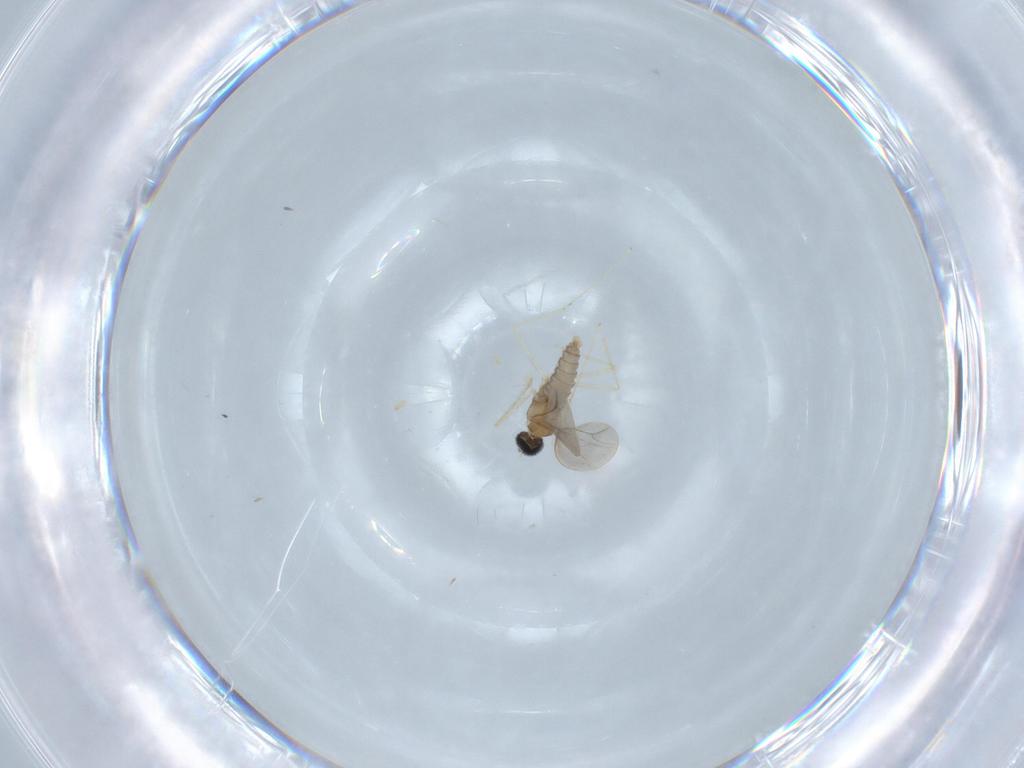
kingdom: Animalia
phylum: Arthropoda
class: Insecta
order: Diptera
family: Cecidomyiidae
